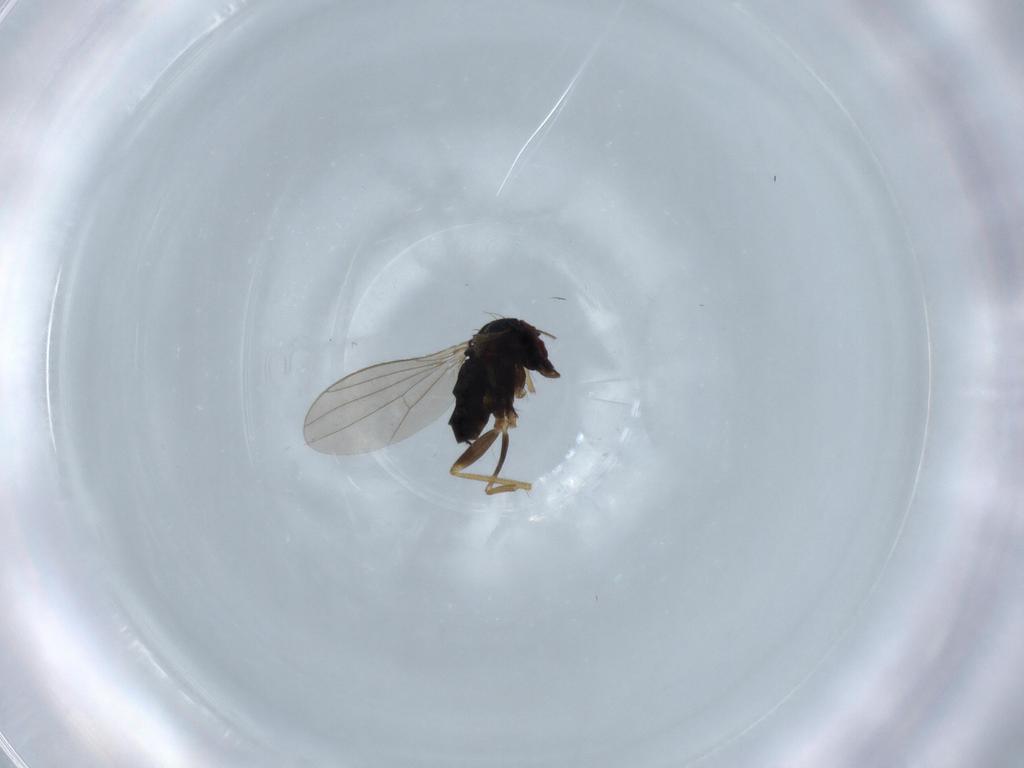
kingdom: Animalia
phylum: Arthropoda
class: Insecta
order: Diptera
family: Dolichopodidae
